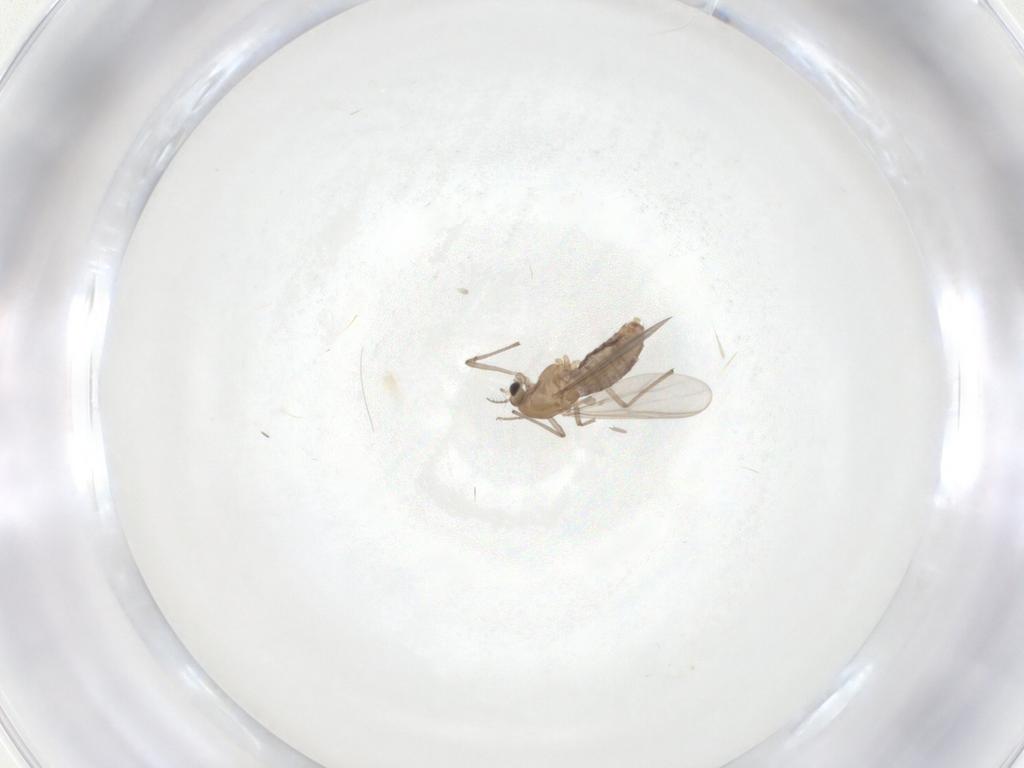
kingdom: Animalia
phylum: Arthropoda
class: Insecta
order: Diptera
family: Chironomidae
